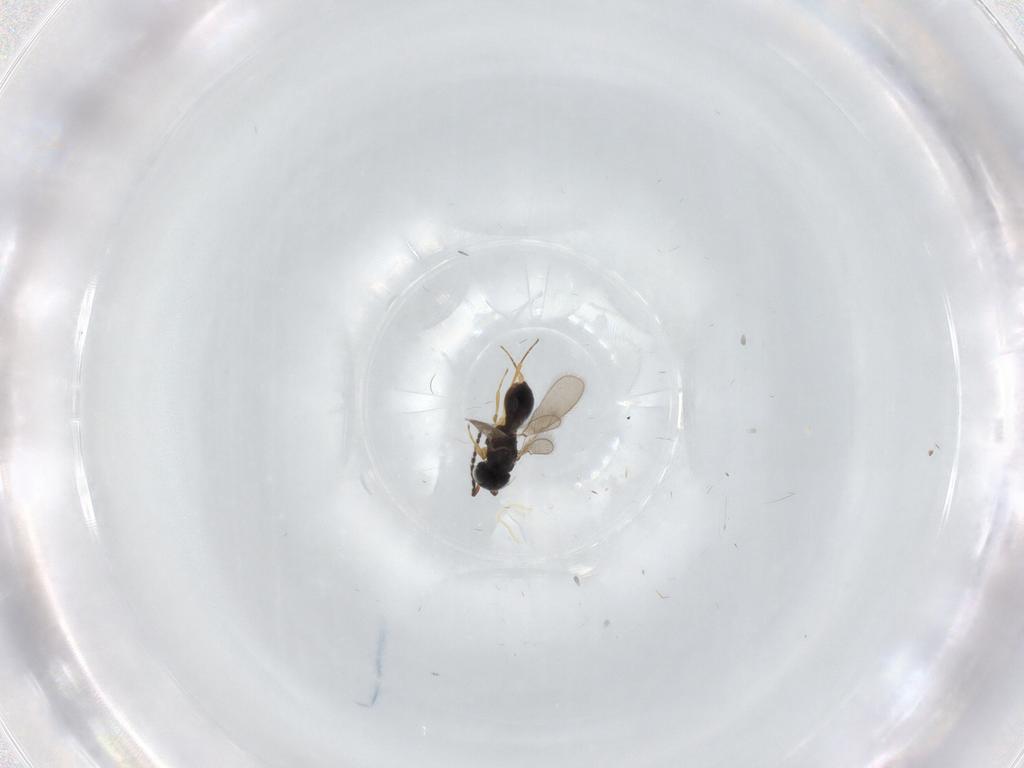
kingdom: Animalia
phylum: Arthropoda
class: Insecta
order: Hymenoptera
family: Scelionidae
